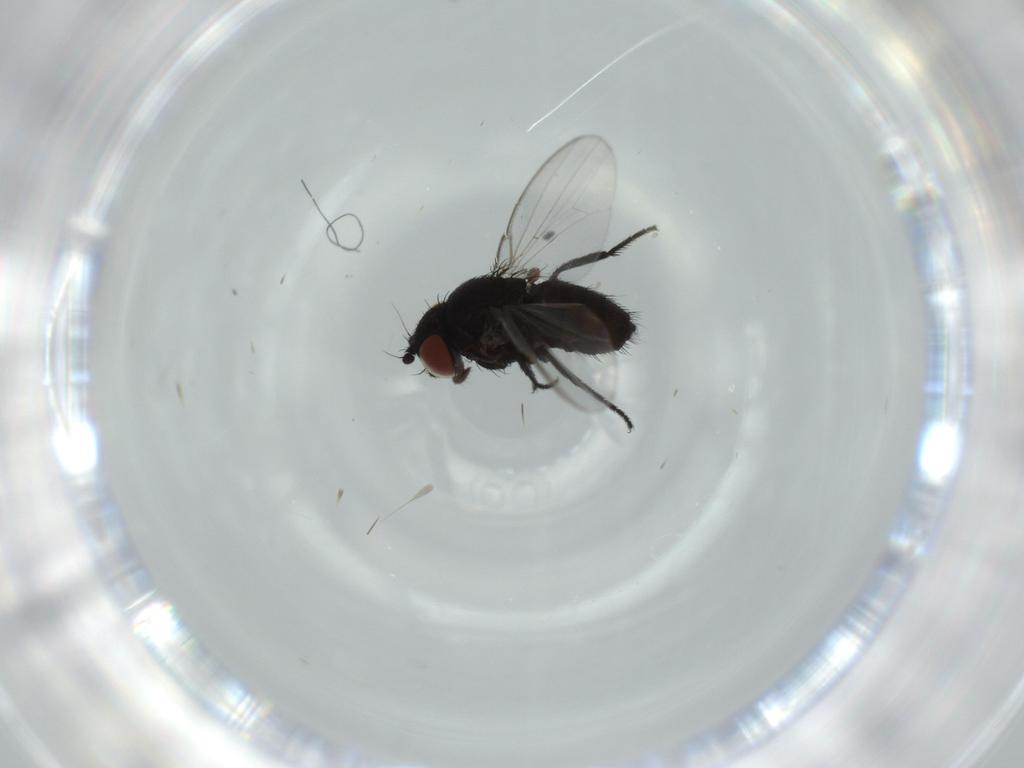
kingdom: Animalia
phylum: Arthropoda
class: Insecta
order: Diptera
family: Milichiidae
